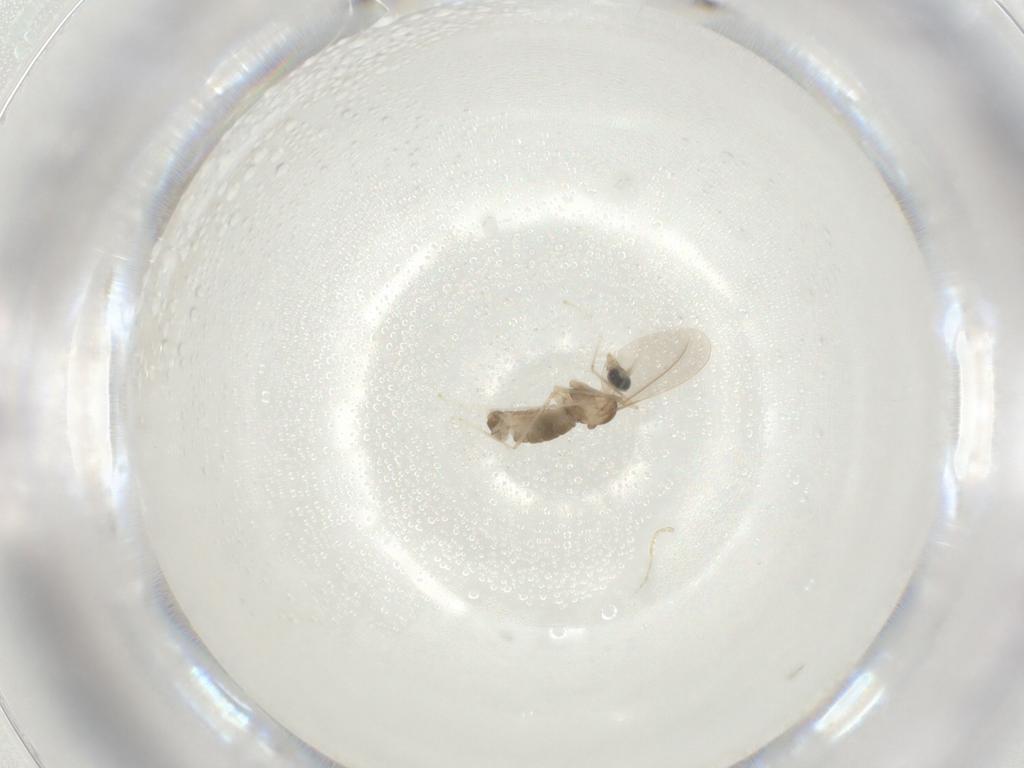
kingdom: Animalia
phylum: Arthropoda
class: Insecta
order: Diptera
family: Cecidomyiidae
